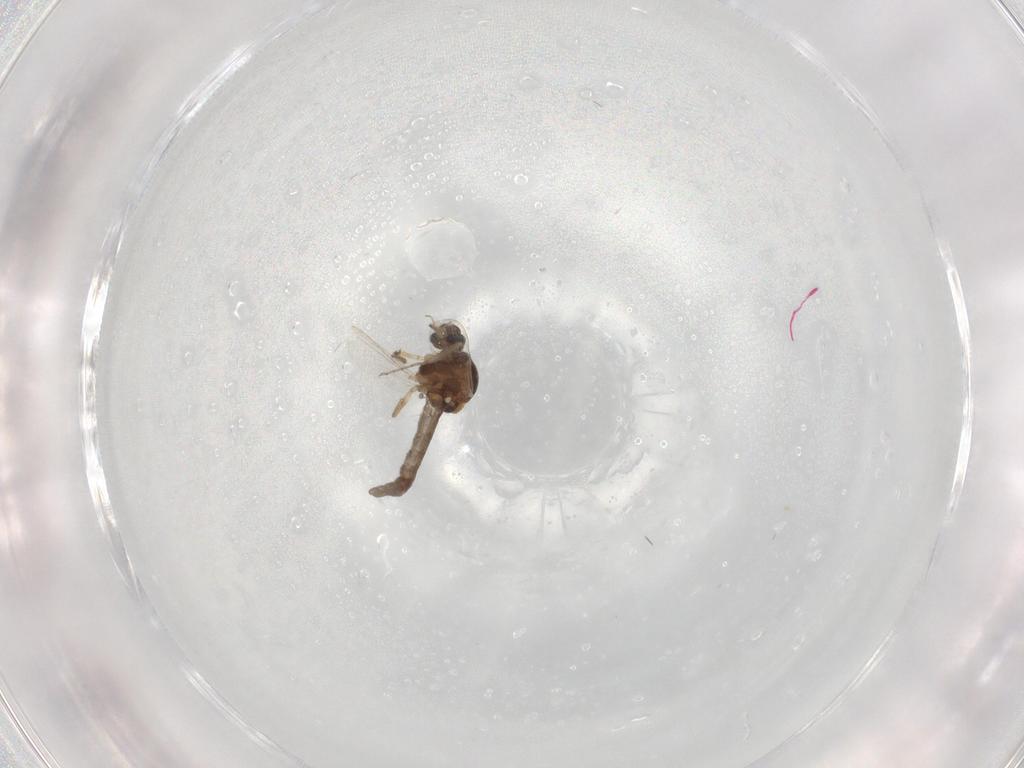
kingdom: Animalia
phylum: Arthropoda
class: Insecta
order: Diptera
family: Ceratopogonidae
